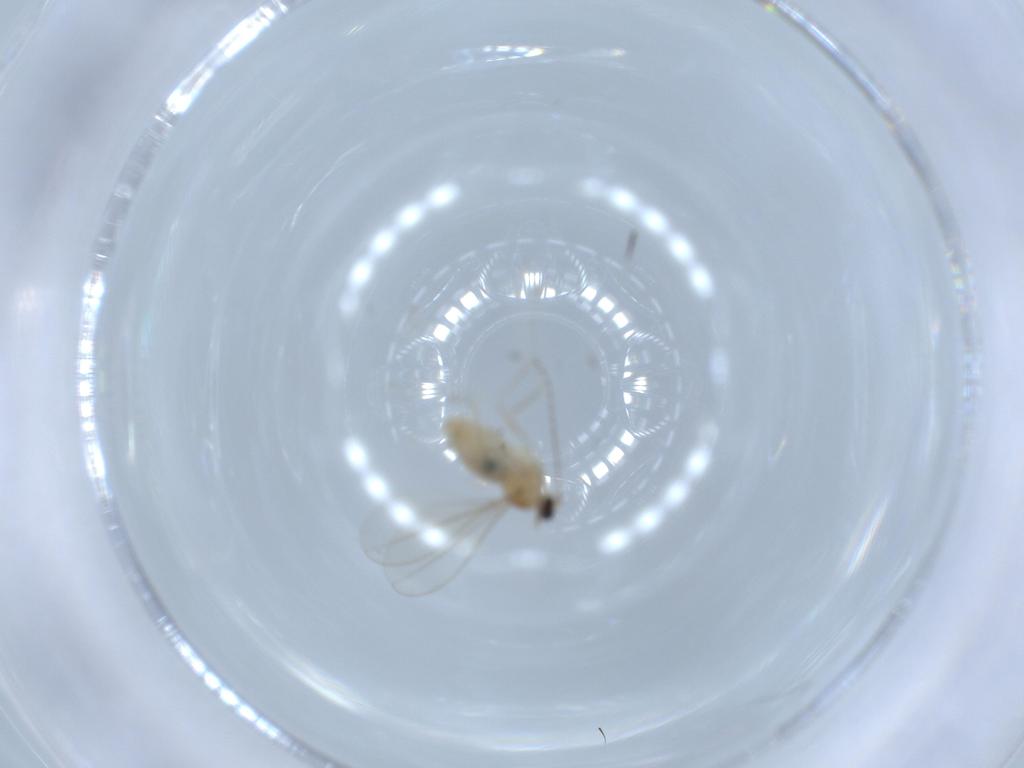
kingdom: Animalia
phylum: Arthropoda
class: Insecta
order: Diptera
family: Cecidomyiidae
